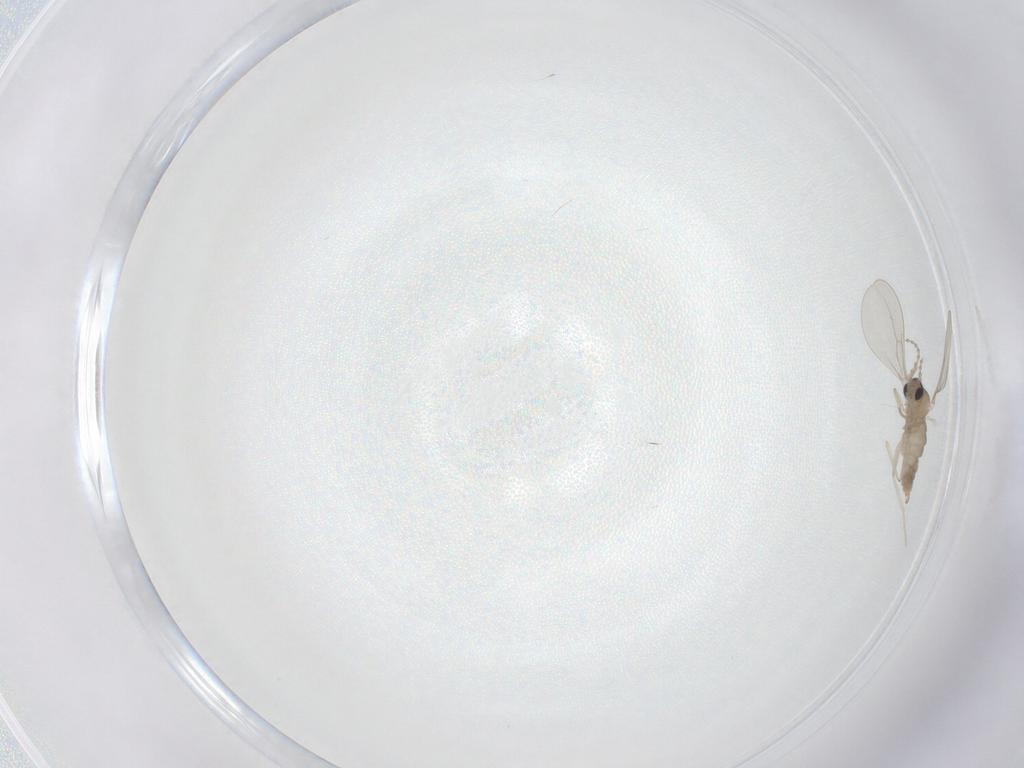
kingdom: Animalia
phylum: Arthropoda
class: Insecta
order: Diptera
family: Cecidomyiidae
